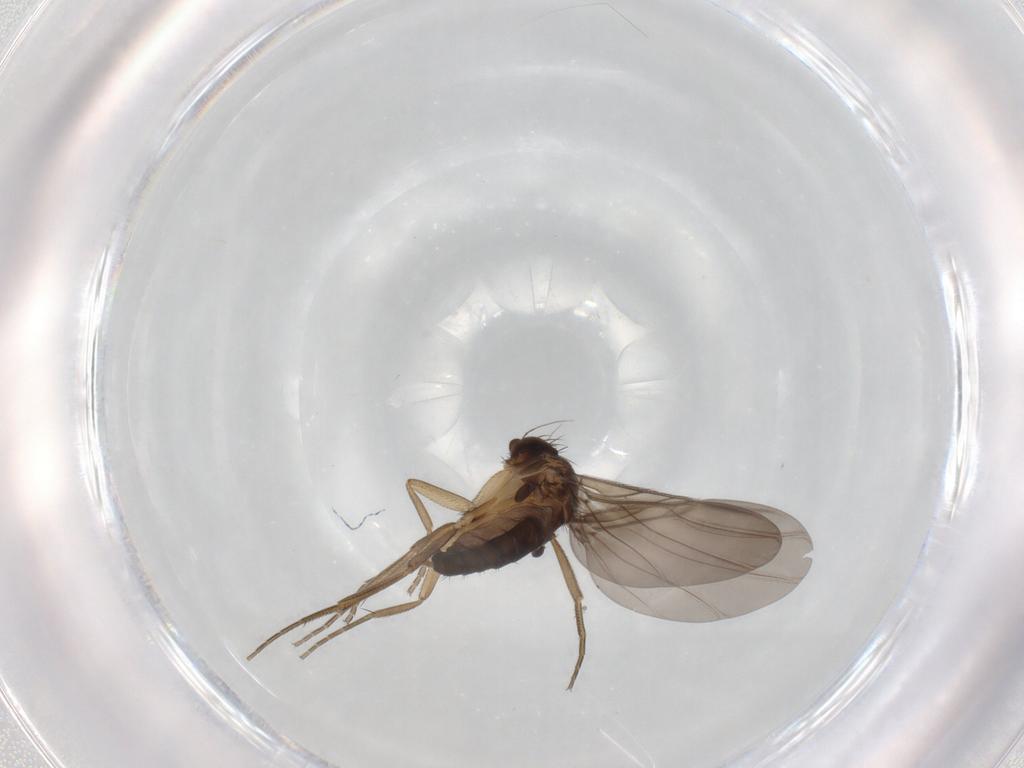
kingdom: Animalia
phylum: Arthropoda
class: Insecta
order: Diptera
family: Phoridae
